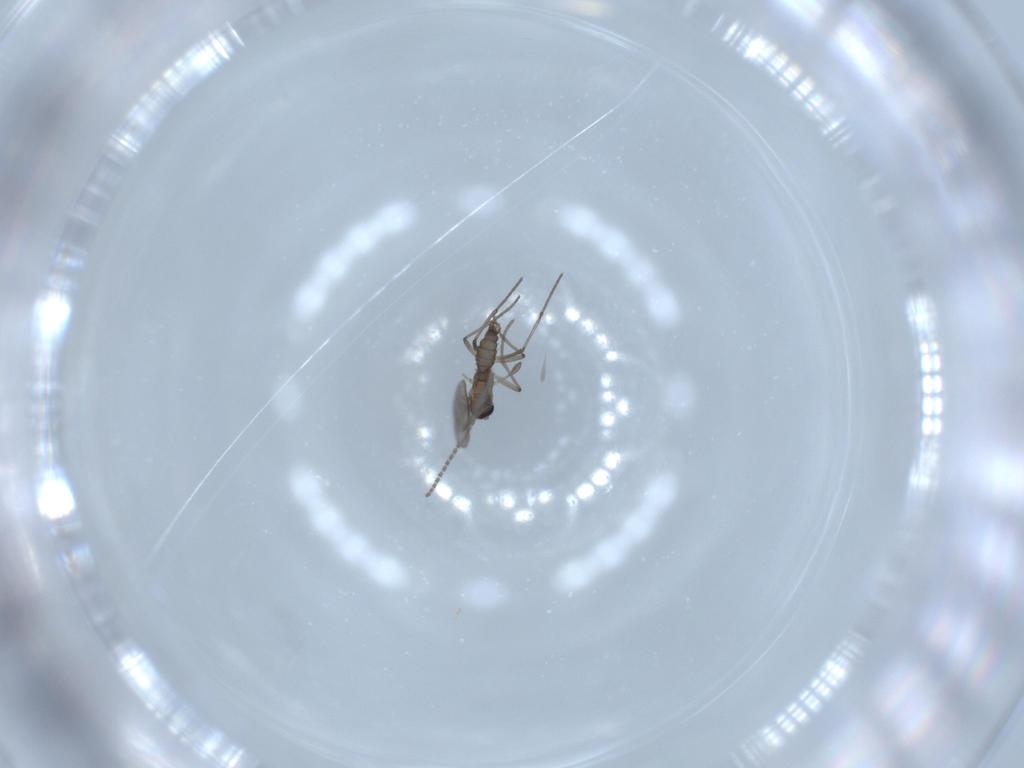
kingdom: Animalia
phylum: Arthropoda
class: Insecta
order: Diptera
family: Sciaridae
